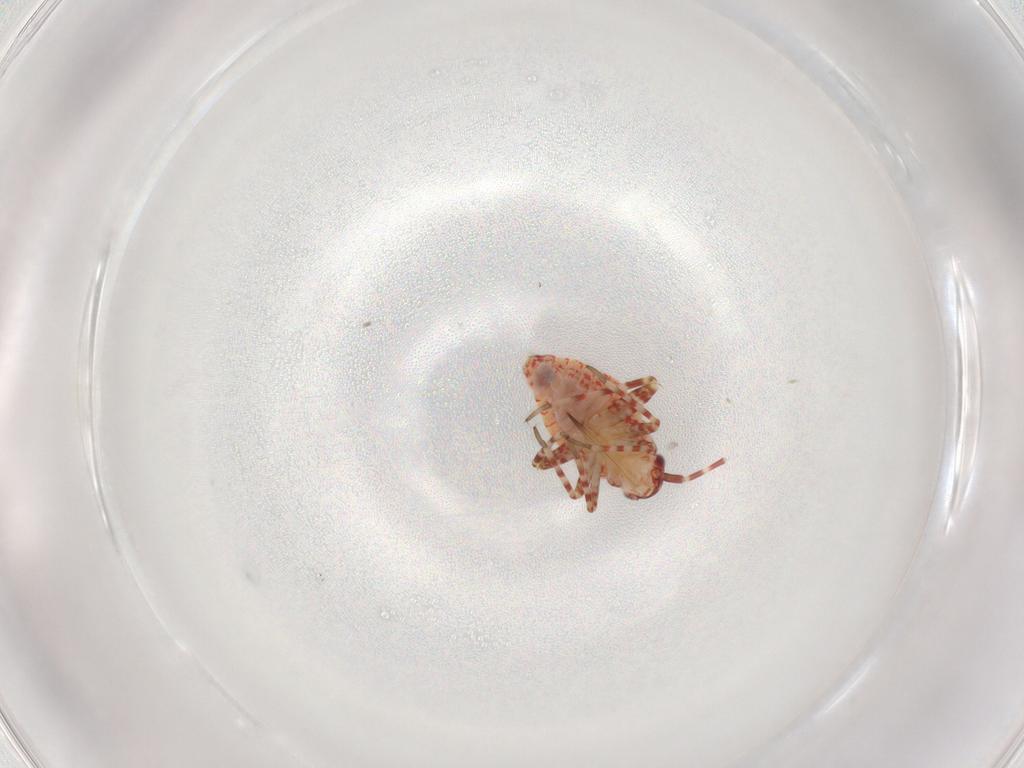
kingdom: Animalia
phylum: Arthropoda
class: Insecta
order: Hemiptera
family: Miridae
